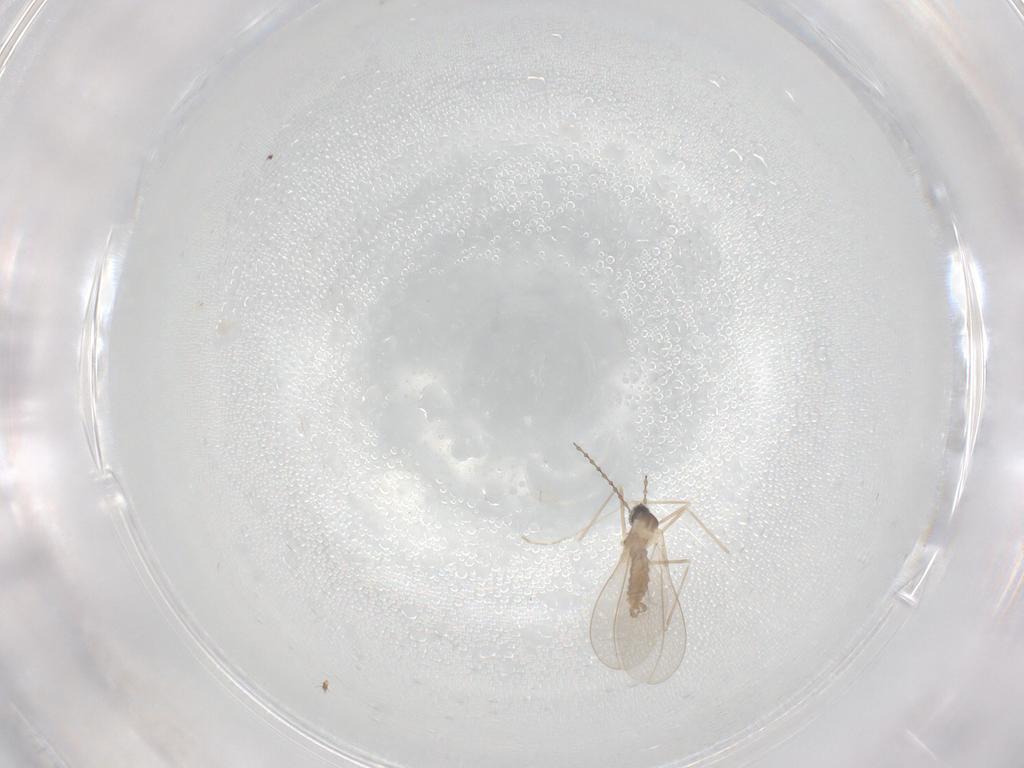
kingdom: Animalia
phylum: Arthropoda
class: Insecta
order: Diptera
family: Cecidomyiidae
